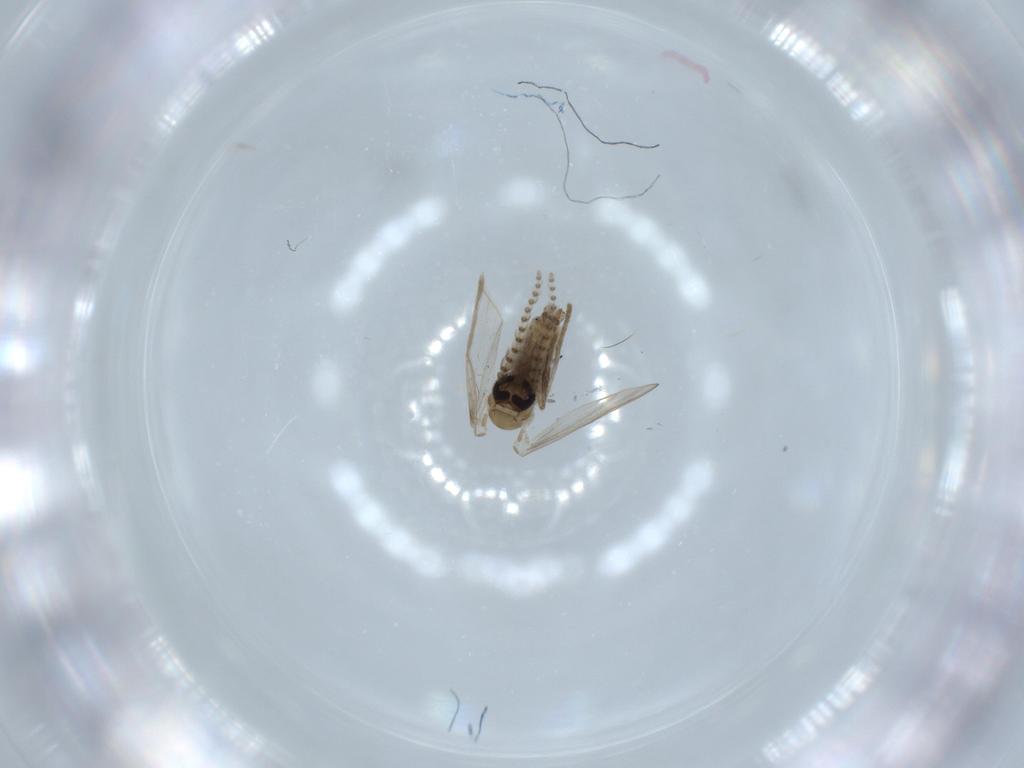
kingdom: Animalia
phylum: Arthropoda
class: Insecta
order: Diptera
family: Psychodidae
